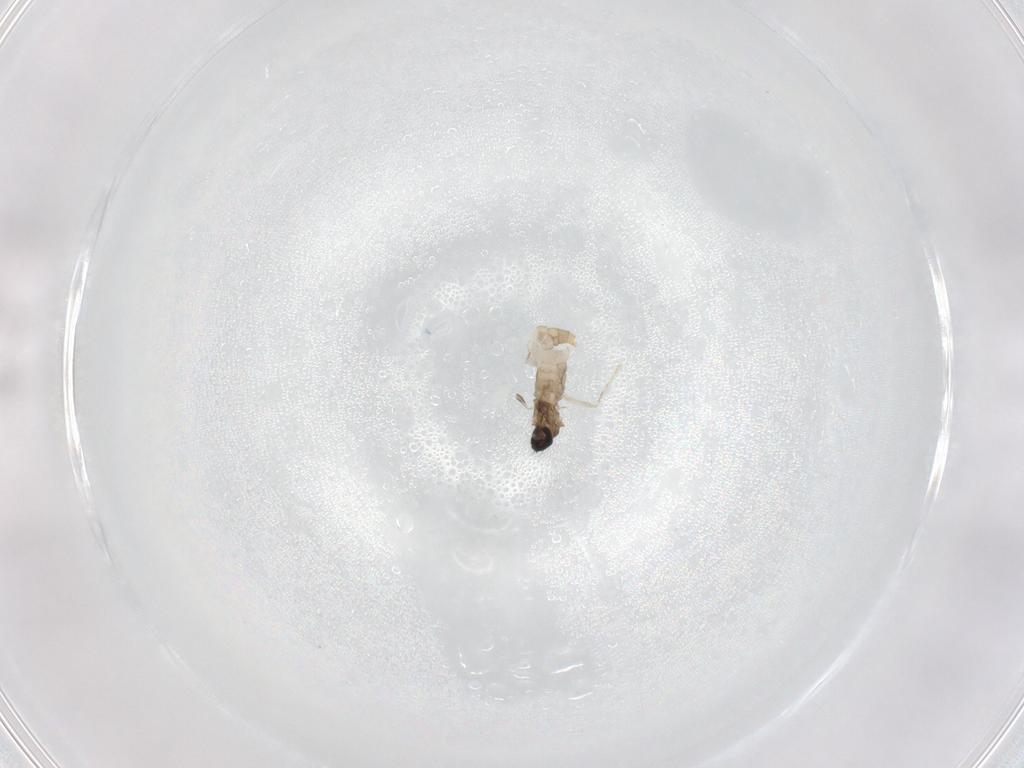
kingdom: Animalia
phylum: Arthropoda
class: Insecta
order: Diptera
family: Cecidomyiidae
